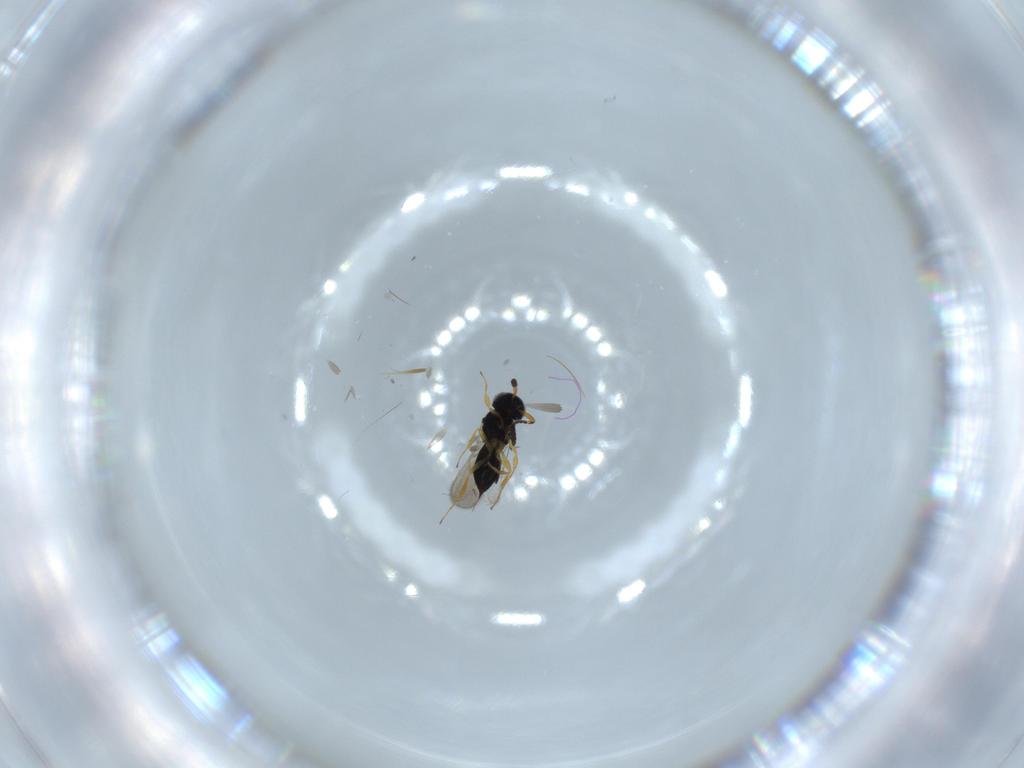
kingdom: Animalia
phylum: Arthropoda
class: Insecta
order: Hymenoptera
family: Scelionidae
